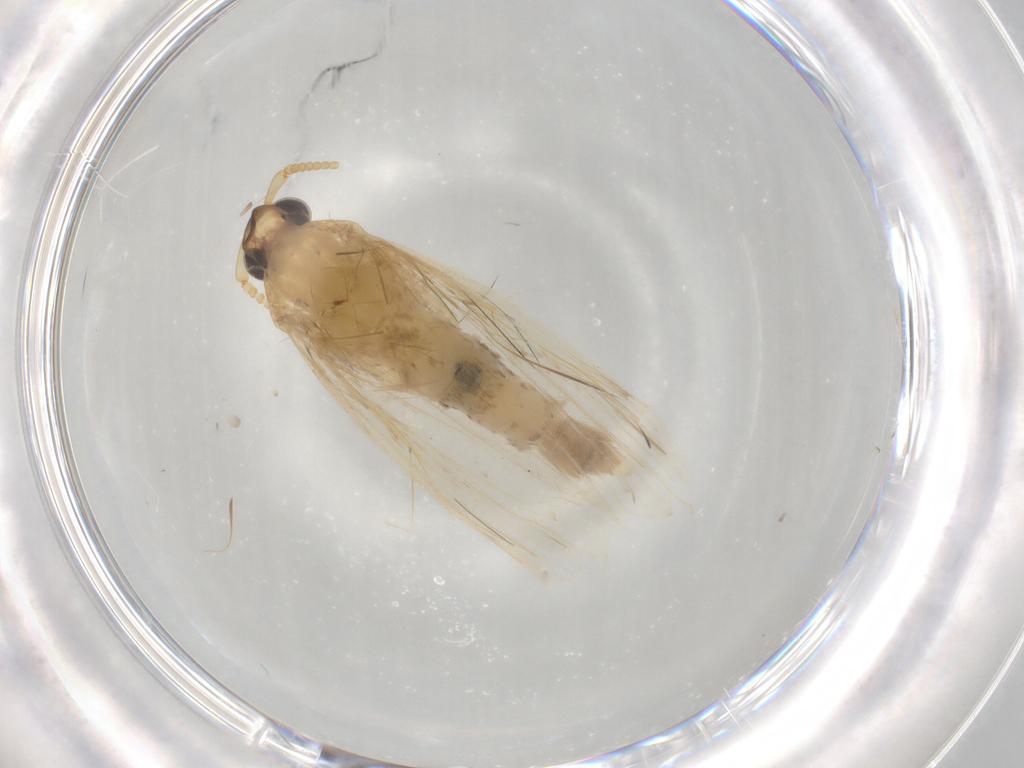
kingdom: Animalia
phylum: Arthropoda
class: Insecta
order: Lepidoptera
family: Lecithoceridae
